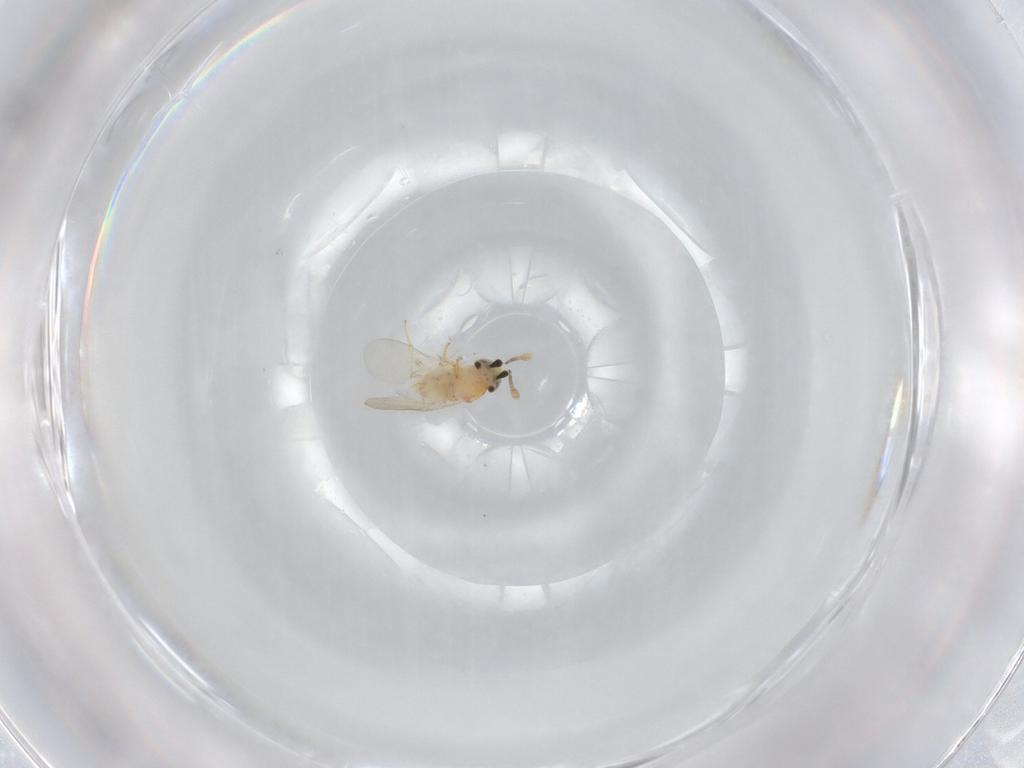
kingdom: Animalia
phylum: Arthropoda
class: Insecta
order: Hymenoptera
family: Encyrtidae
